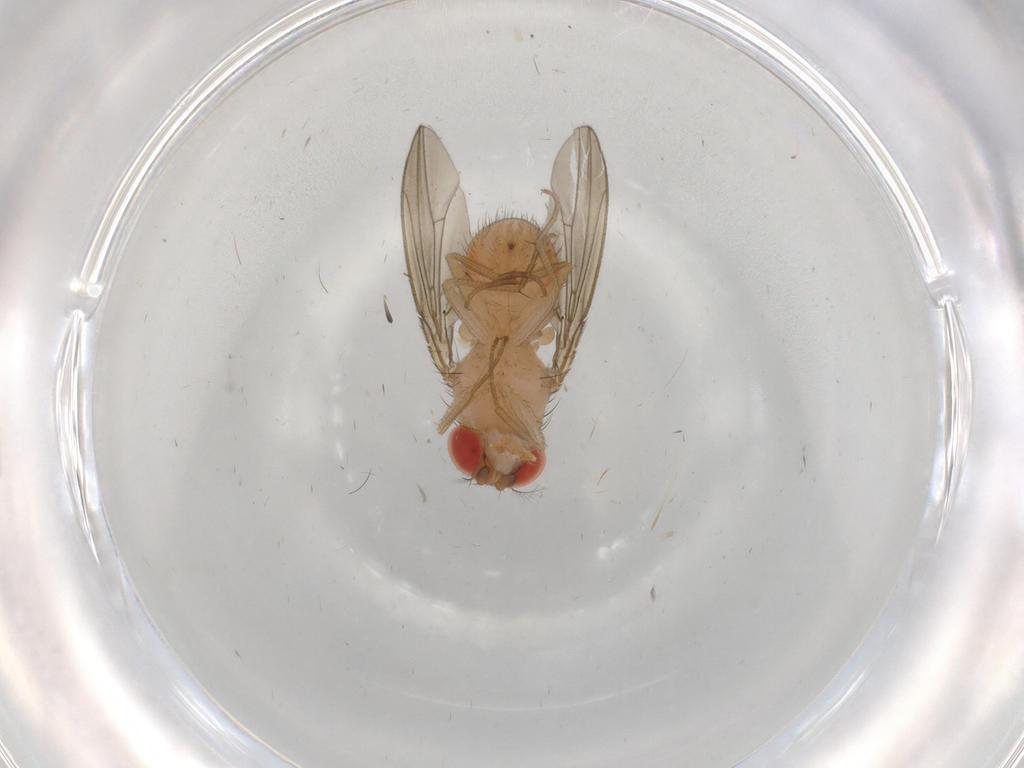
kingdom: Animalia
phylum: Arthropoda
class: Insecta
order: Diptera
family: Drosophilidae
